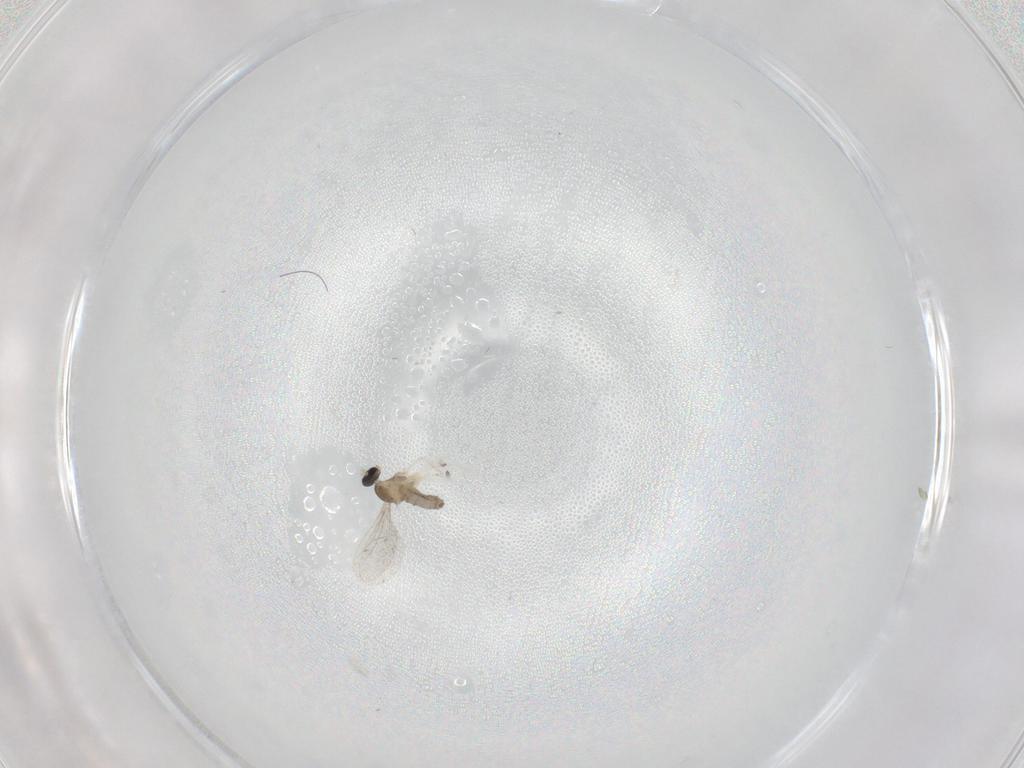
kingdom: Animalia
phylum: Arthropoda
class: Insecta
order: Diptera
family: Cecidomyiidae
